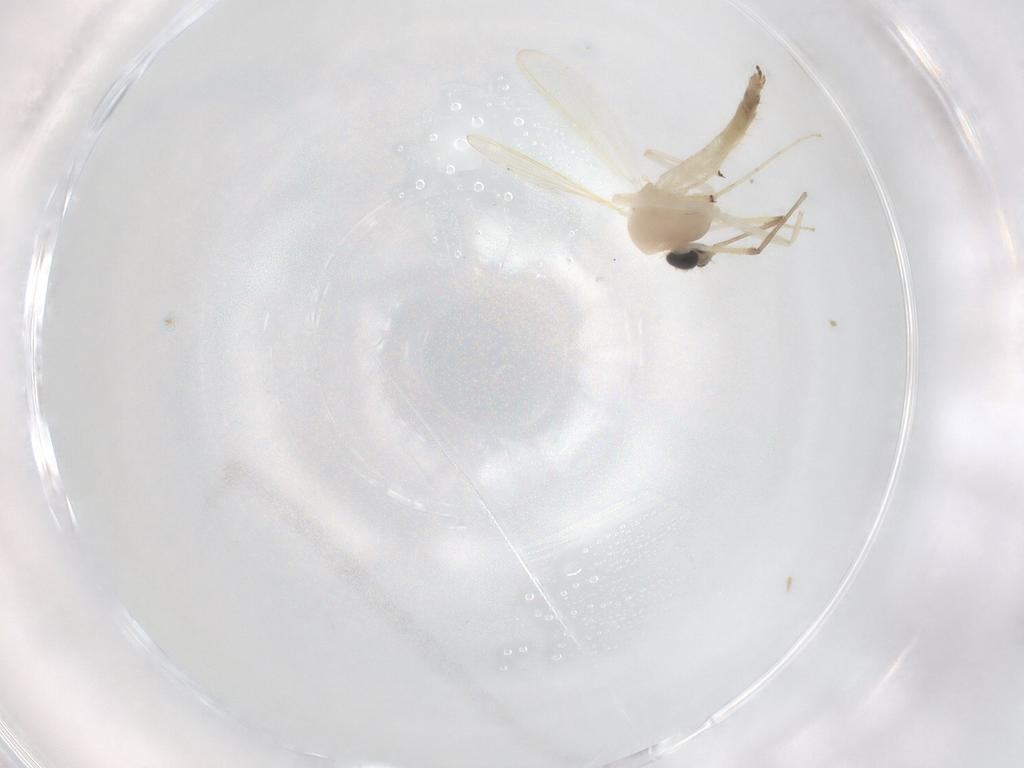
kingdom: Animalia
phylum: Arthropoda
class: Insecta
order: Diptera
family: Chironomidae
